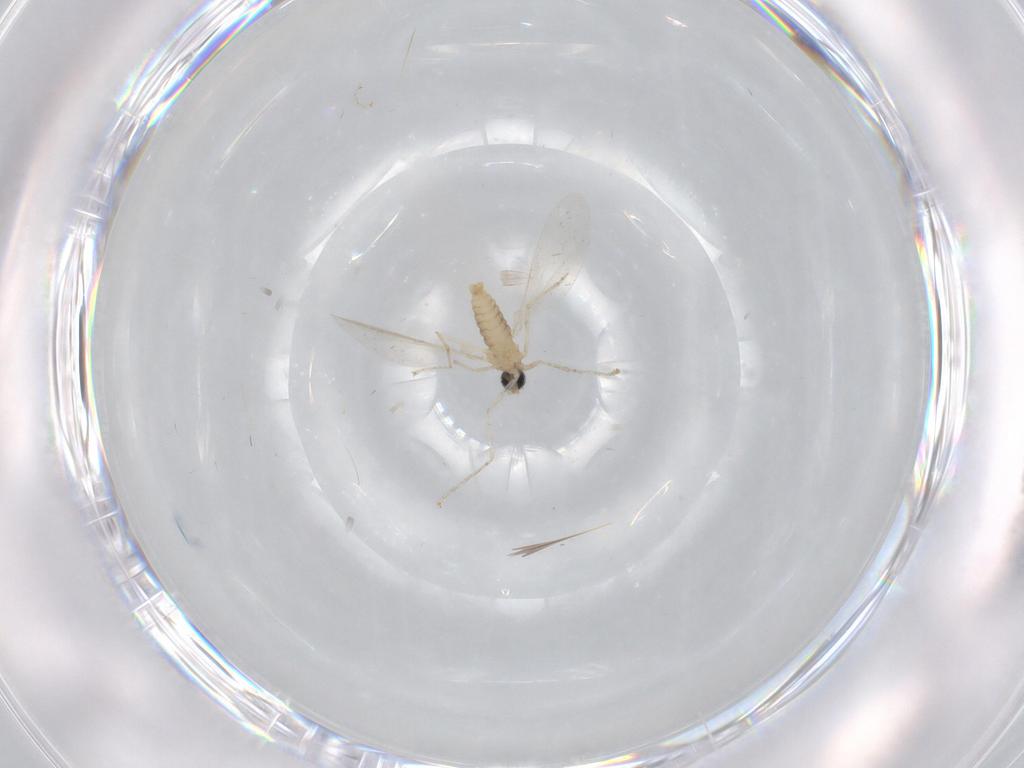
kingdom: Animalia
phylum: Arthropoda
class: Insecta
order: Diptera
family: Cecidomyiidae
